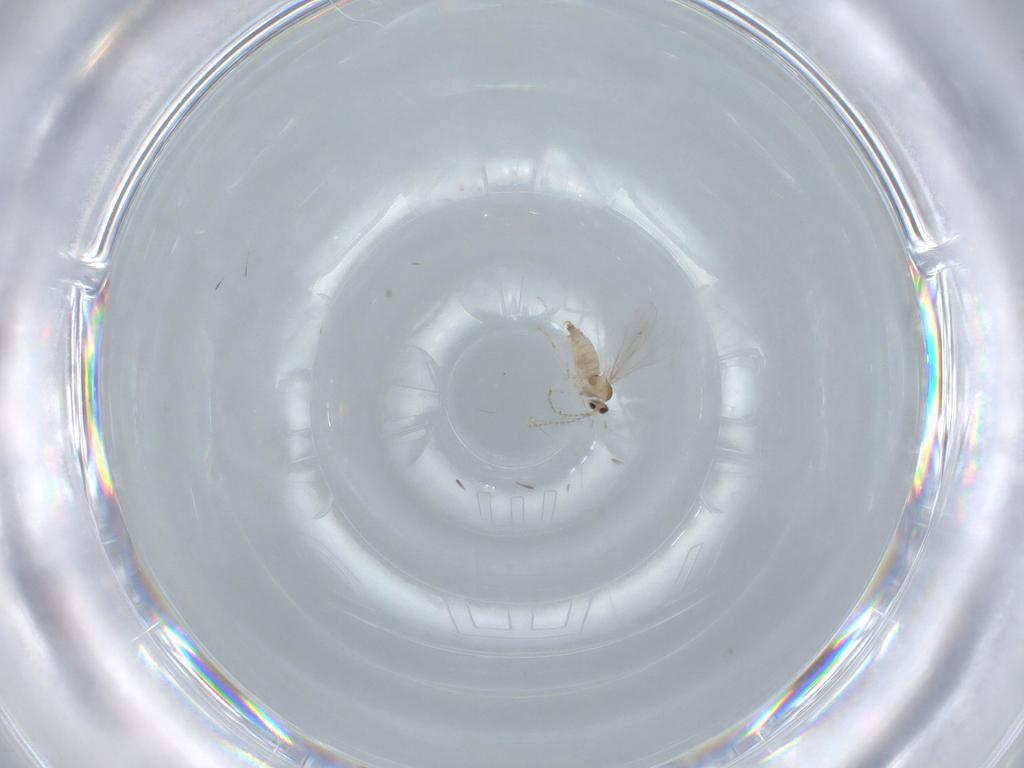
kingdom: Animalia
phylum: Arthropoda
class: Insecta
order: Diptera
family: Cecidomyiidae
